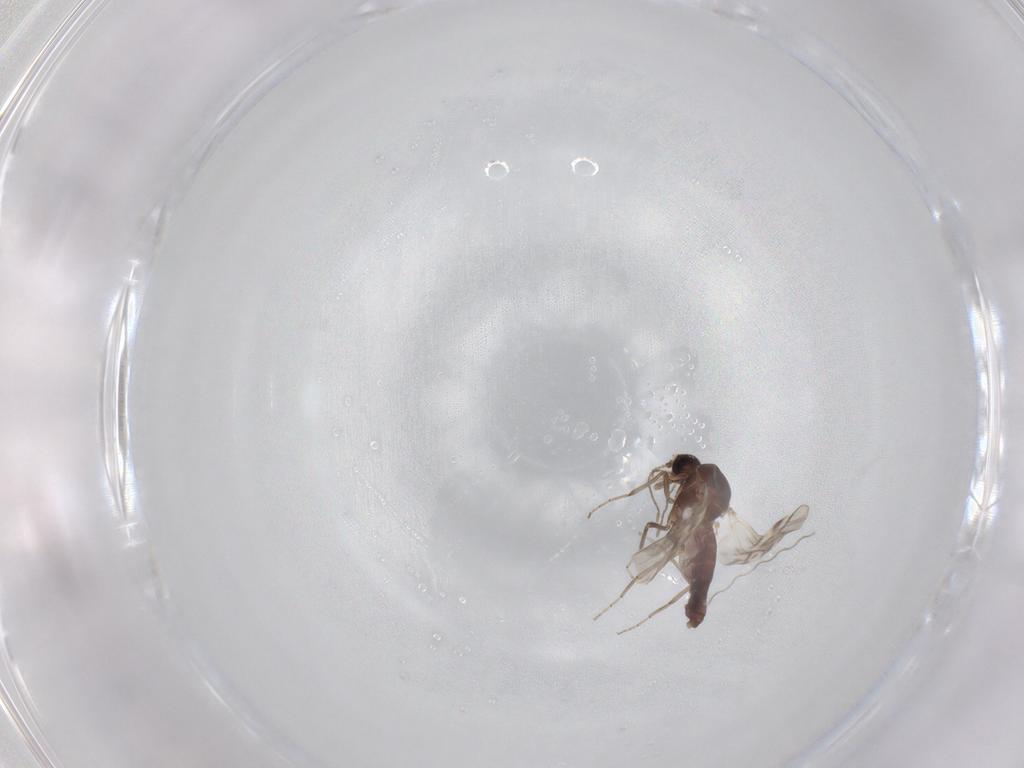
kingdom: Animalia
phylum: Arthropoda
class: Insecta
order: Diptera
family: Ceratopogonidae
